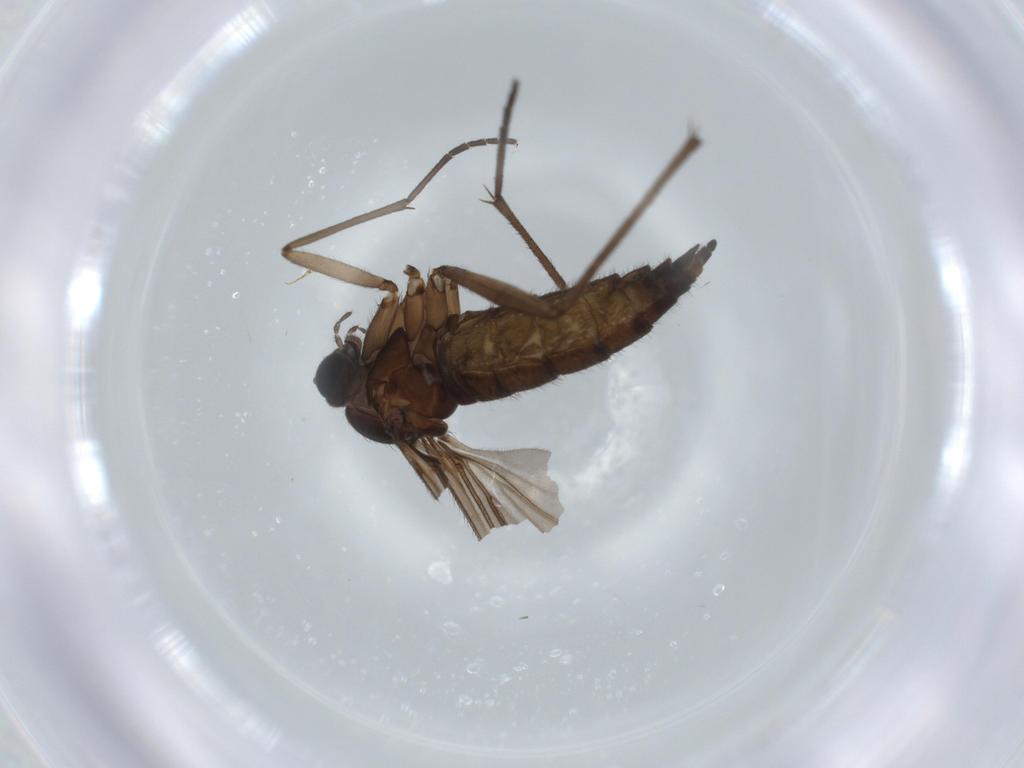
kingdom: Animalia
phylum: Arthropoda
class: Insecta
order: Diptera
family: Sciaridae
